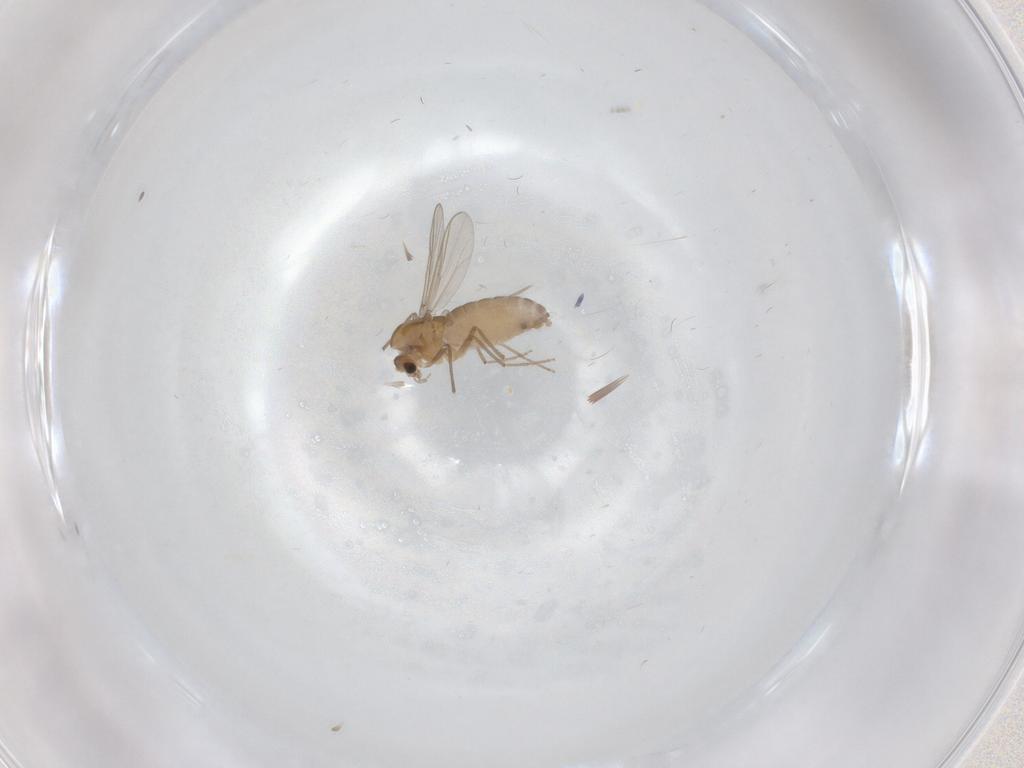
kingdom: Animalia
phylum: Arthropoda
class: Insecta
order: Diptera
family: Chironomidae
